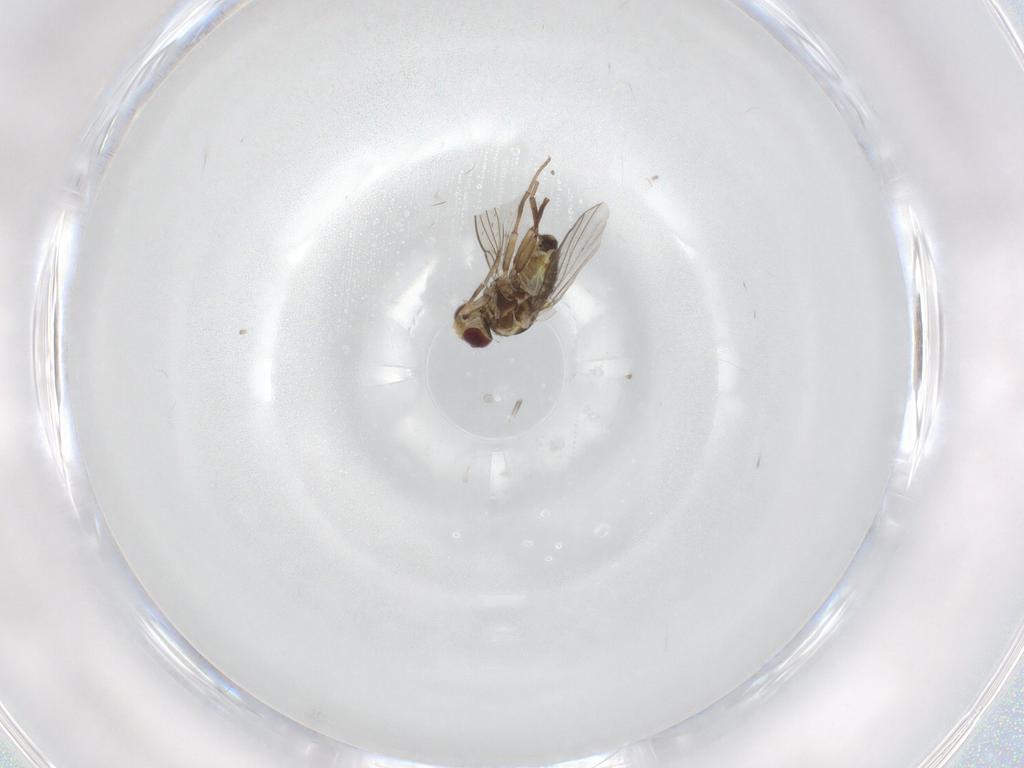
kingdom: Animalia
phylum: Arthropoda
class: Insecta
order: Diptera
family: Agromyzidae
